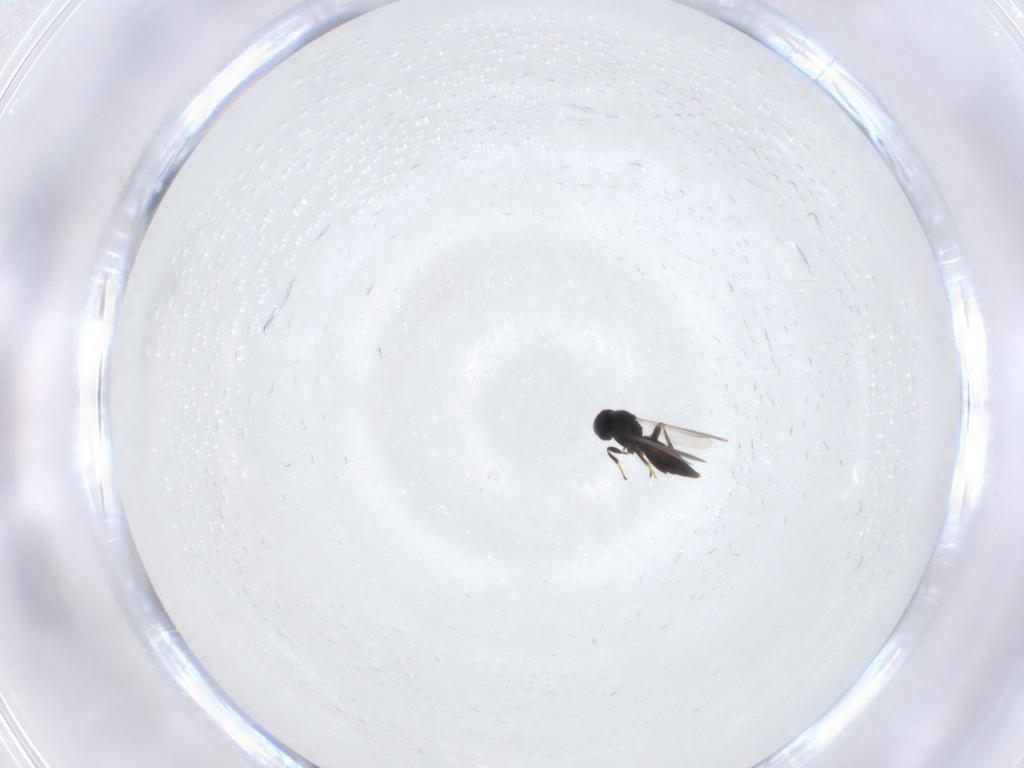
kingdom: Animalia
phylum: Arthropoda
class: Insecta
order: Hymenoptera
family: Platygastridae
